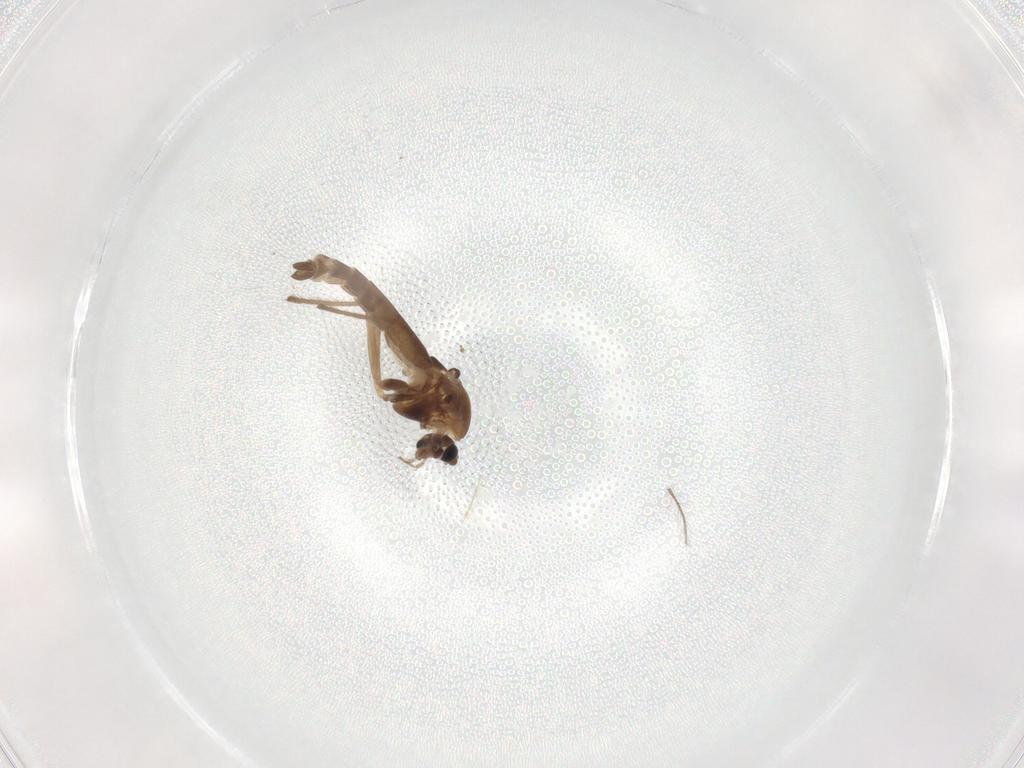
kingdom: Animalia
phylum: Arthropoda
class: Insecta
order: Diptera
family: Chironomidae
